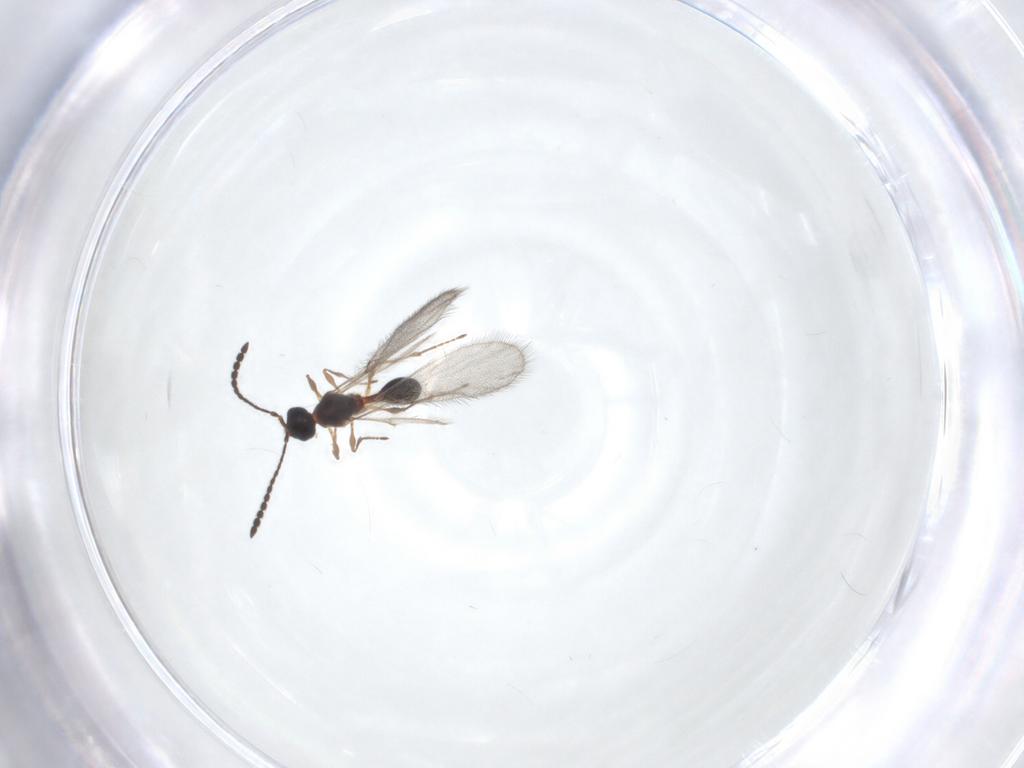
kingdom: Animalia
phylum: Arthropoda
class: Insecta
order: Hymenoptera
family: Diapriidae
